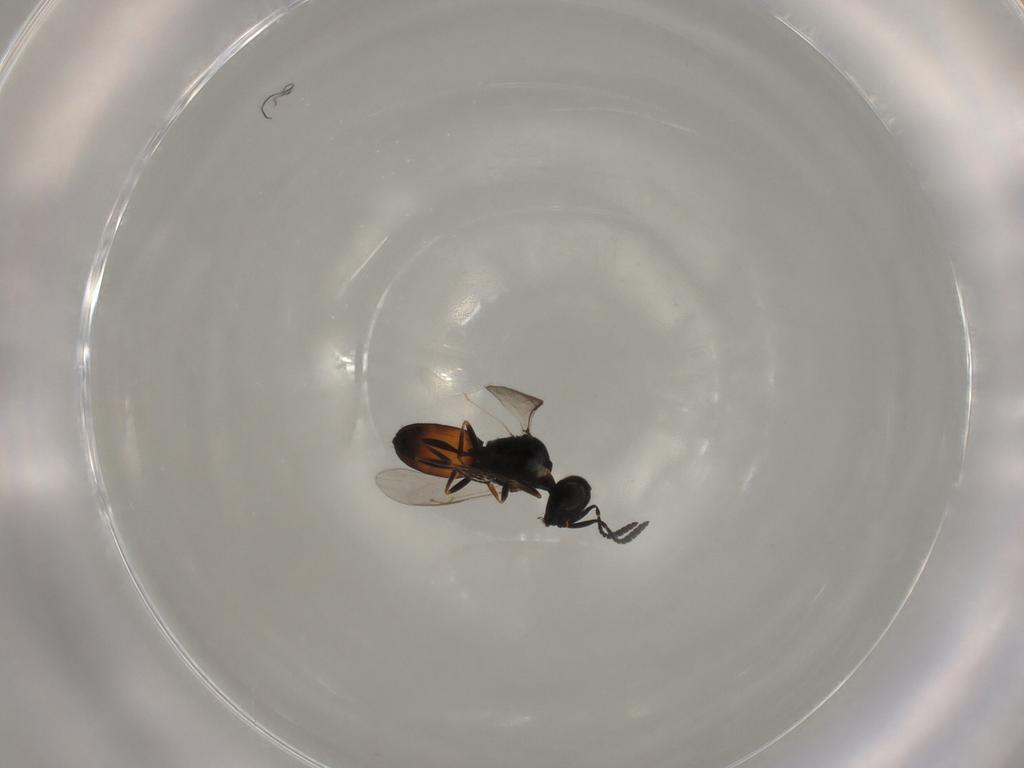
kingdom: Animalia
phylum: Arthropoda
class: Insecta
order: Hymenoptera
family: Scelionidae
